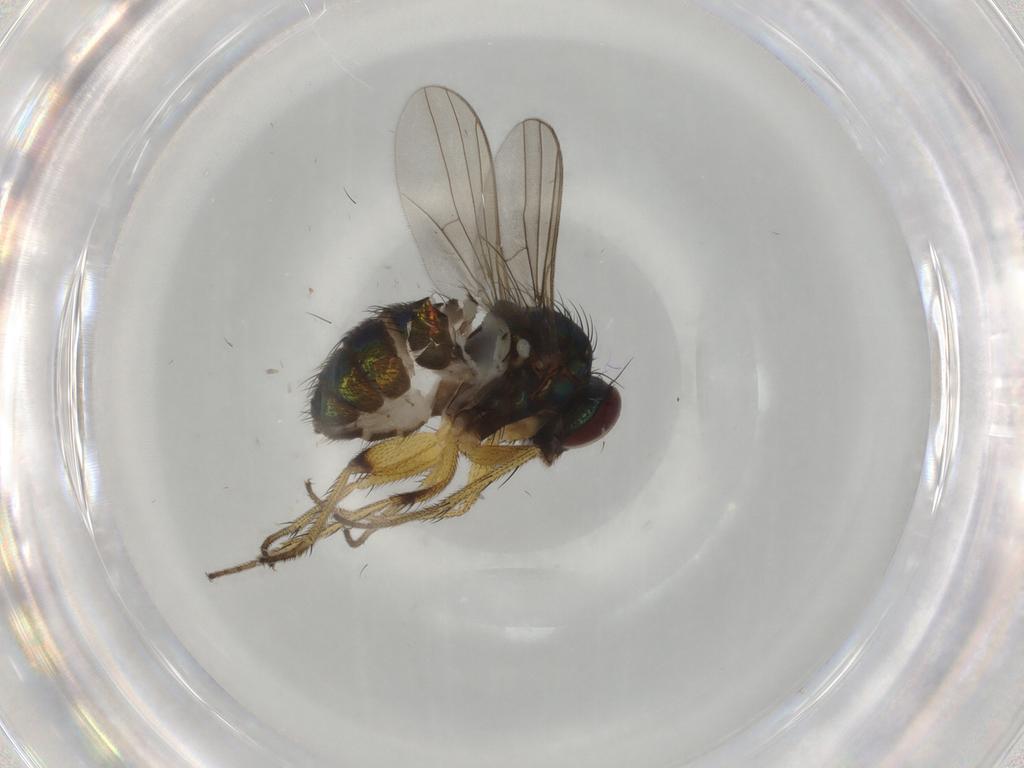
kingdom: Animalia
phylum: Arthropoda
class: Insecta
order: Diptera
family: Dolichopodidae
